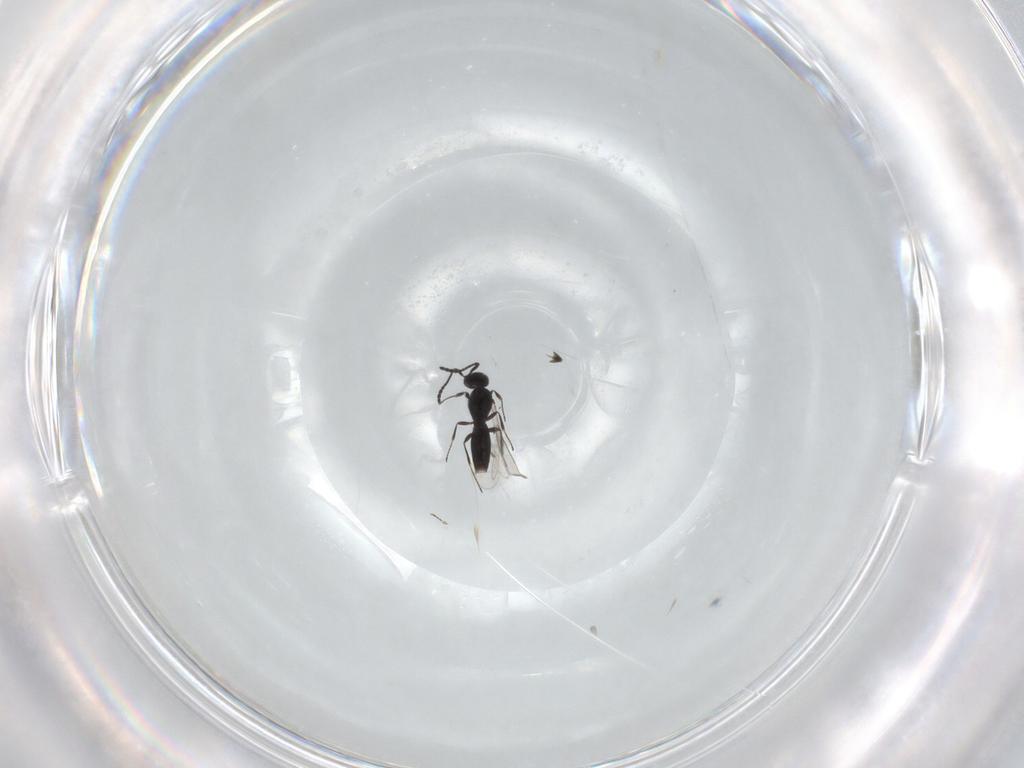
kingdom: Animalia
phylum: Arthropoda
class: Insecta
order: Hymenoptera
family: Scelionidae
